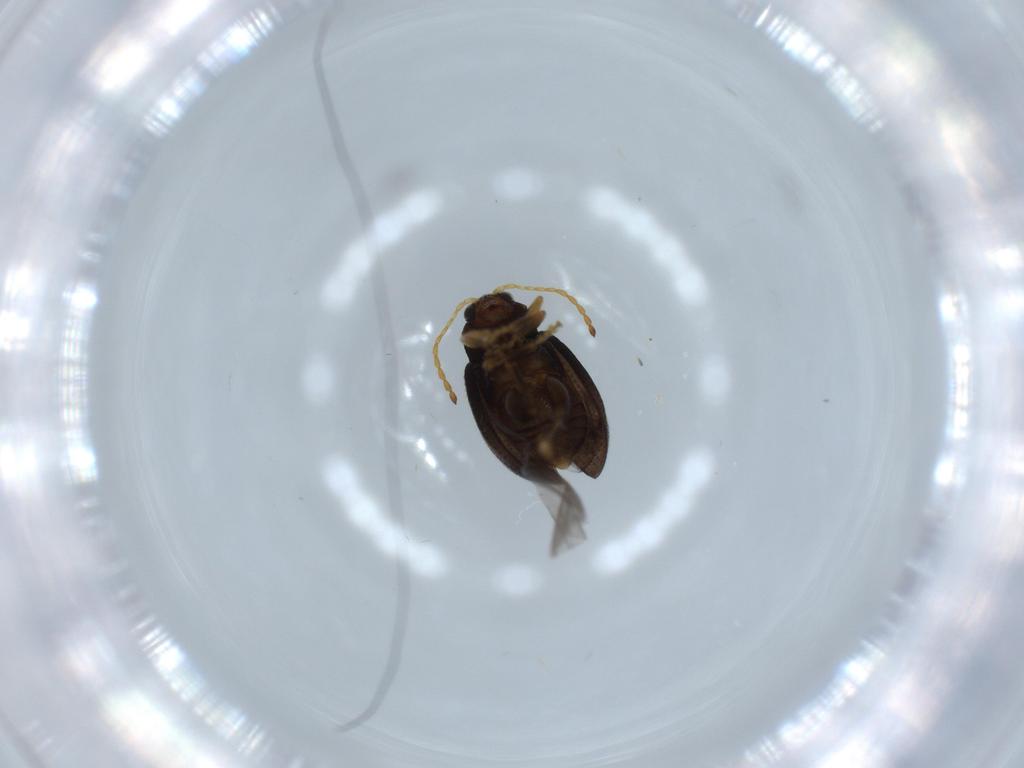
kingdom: Animalia
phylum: Arthropoda
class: Insecta
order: Coleoptera
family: Chrysomelidae
